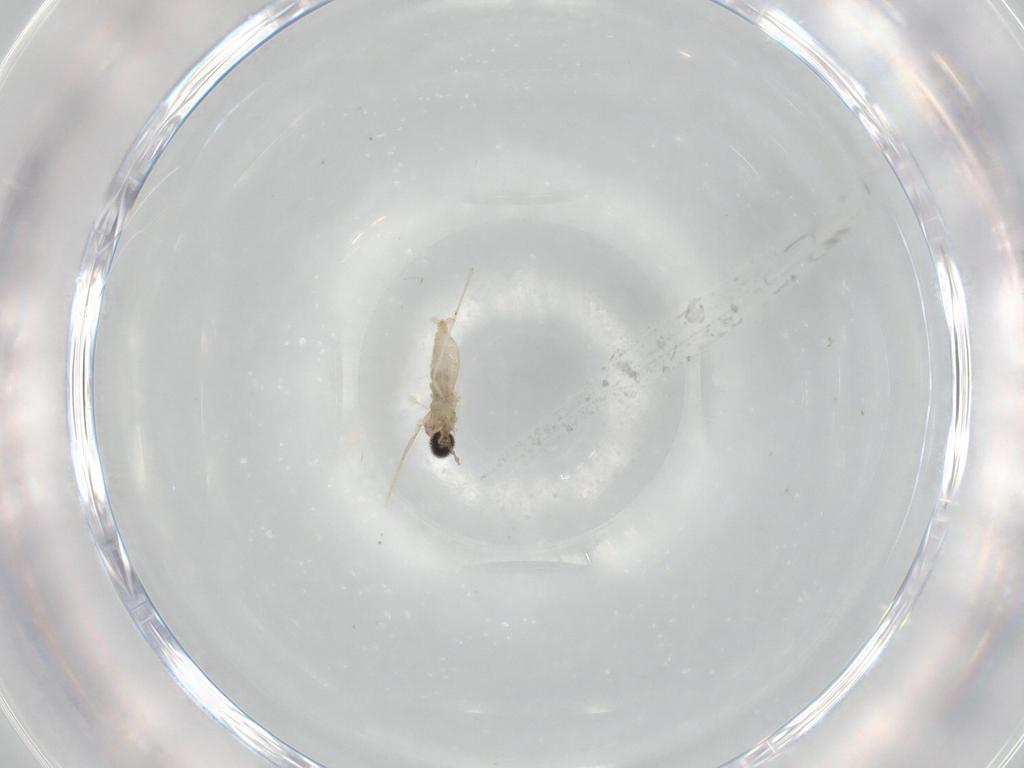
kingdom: Animalia
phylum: Arthropoda
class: Insecta
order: Diptera
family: Cecidomyiidae
